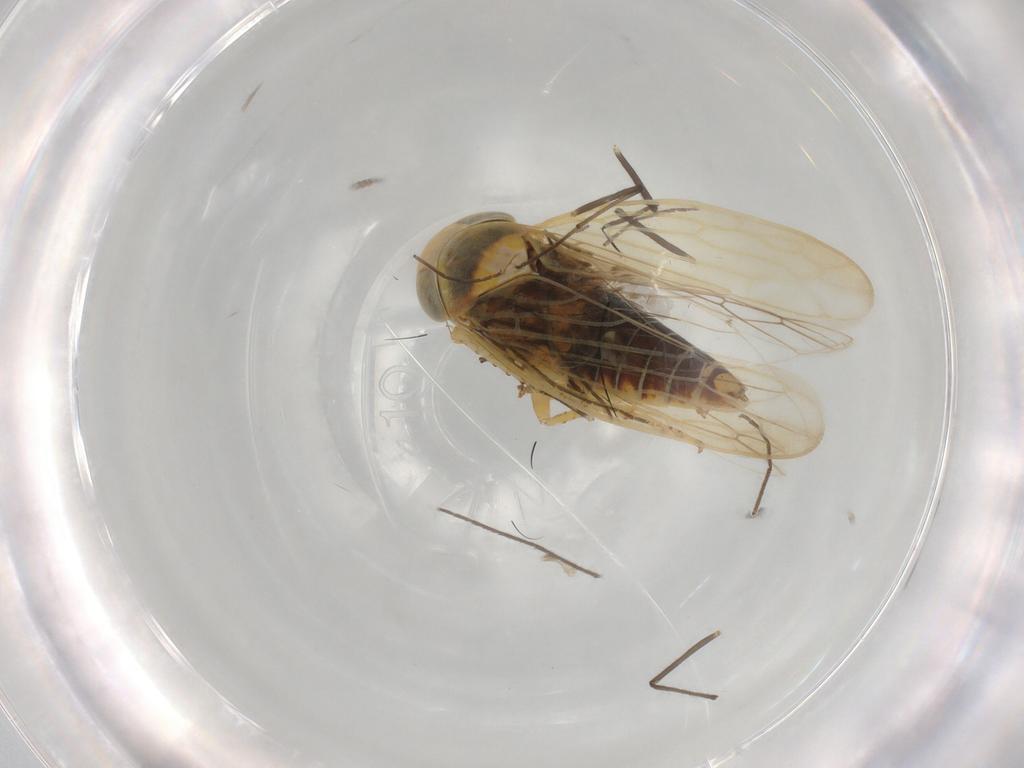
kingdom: Animalia
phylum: Arthropoda
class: Insecta
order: Hemiptera
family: Cicadellidae
